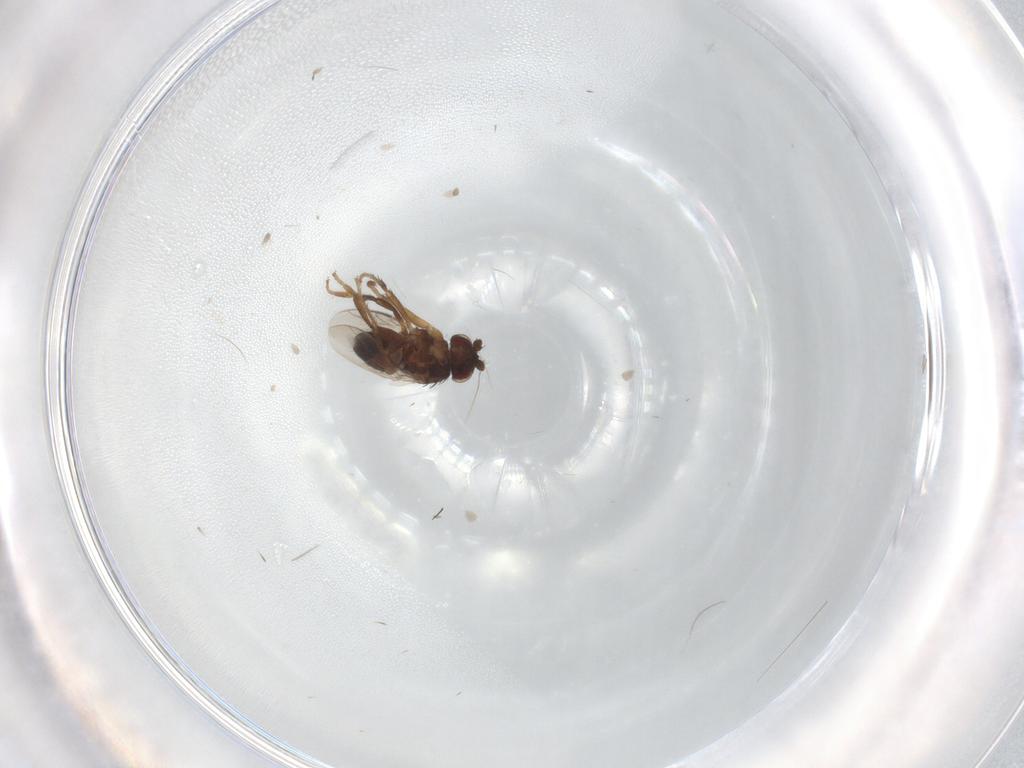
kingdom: Animalia
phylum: Arthropoda
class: Insecta
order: Diptera
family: Sphaeroceridae
